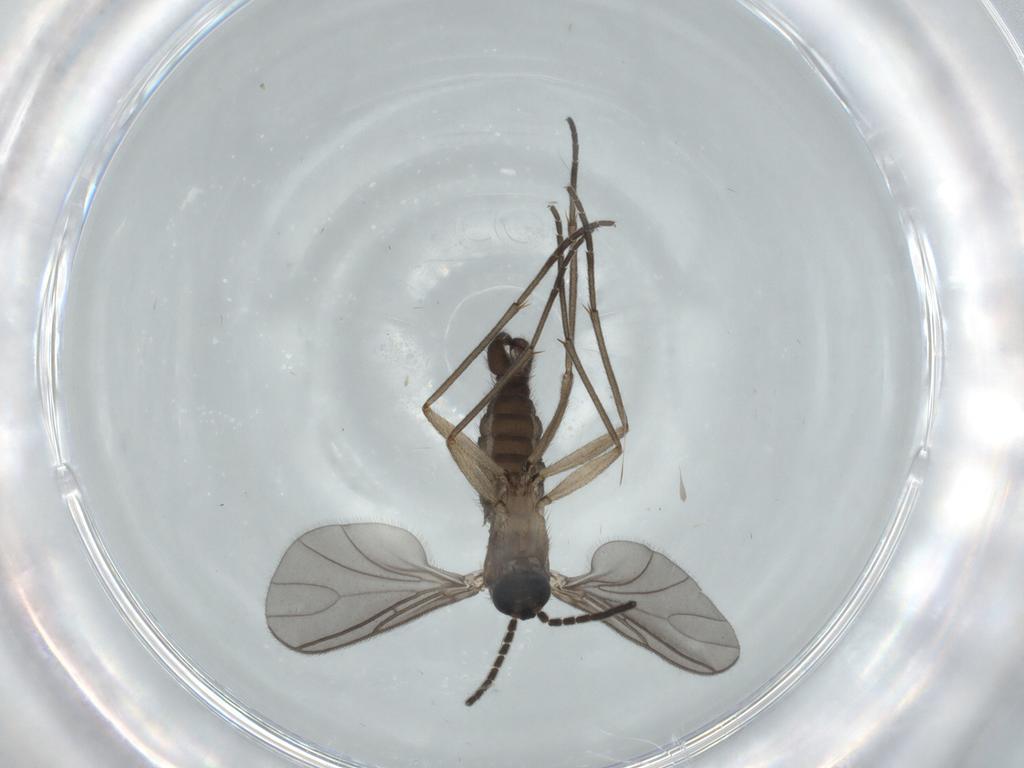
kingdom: Animalia
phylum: Arthropoda
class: Insecta
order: Diptera
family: Sciaridae
